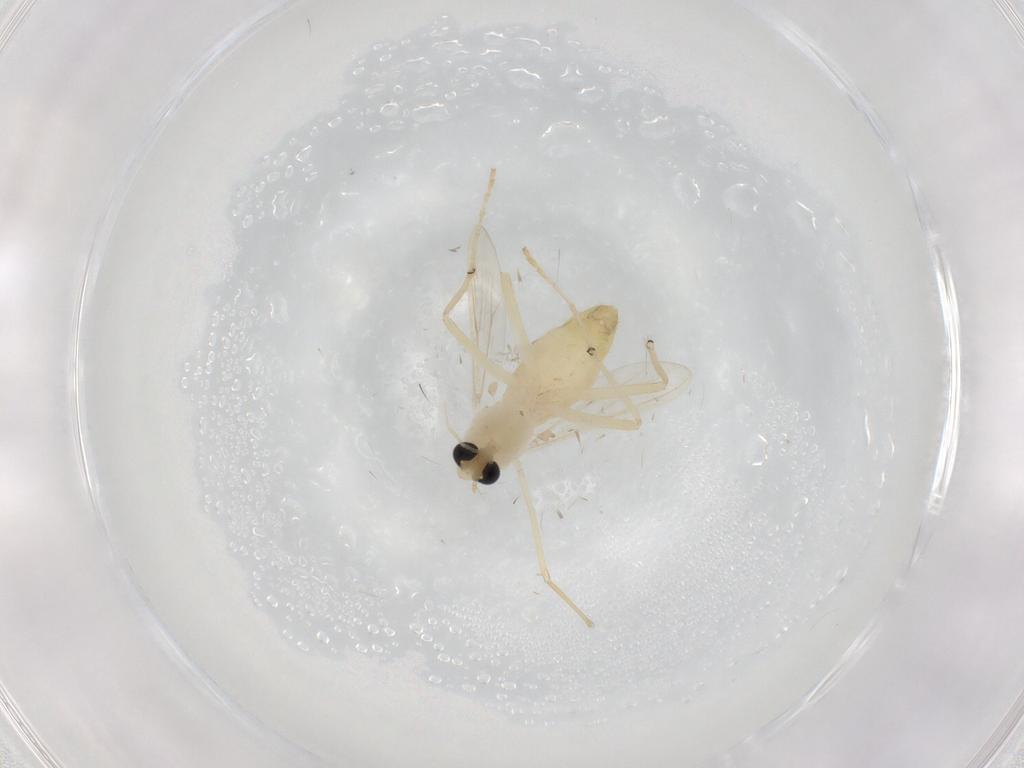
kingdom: Animalia
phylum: Arthropoda
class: Insecta
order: Diptera
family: Chironomidae
